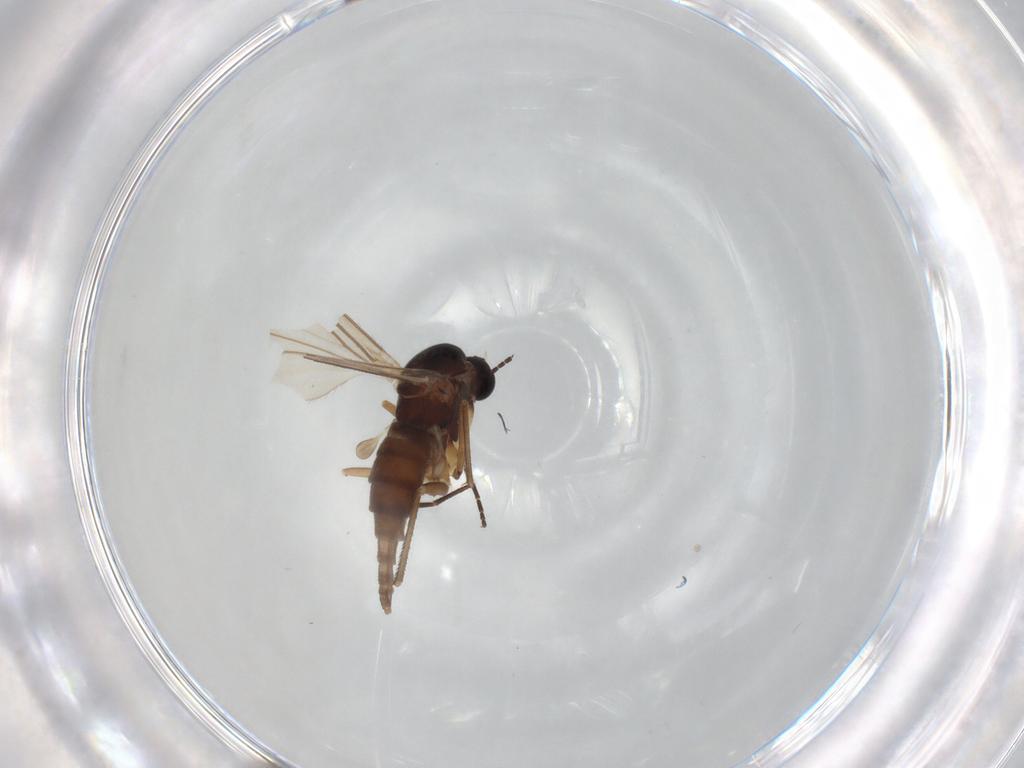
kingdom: Animalia
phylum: Arthropoda
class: Insecta
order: Diptera
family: Agromyzidae
